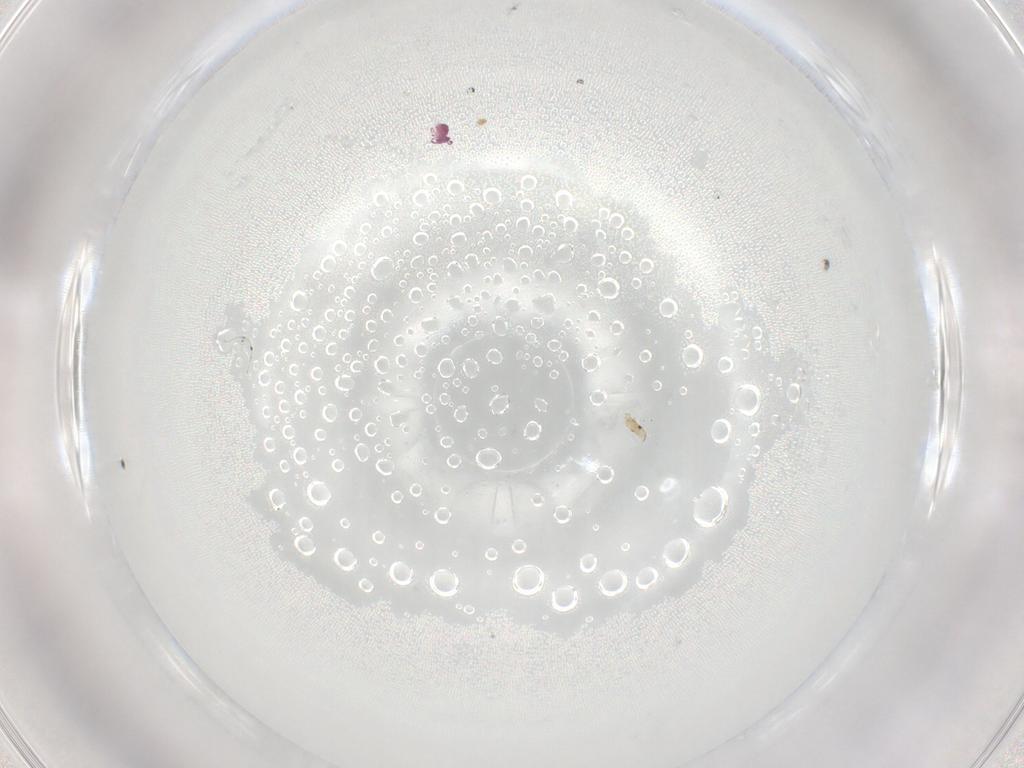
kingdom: Animalia
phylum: Arthropoda
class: Collembola
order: Symphypleona
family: Sminthurididae
